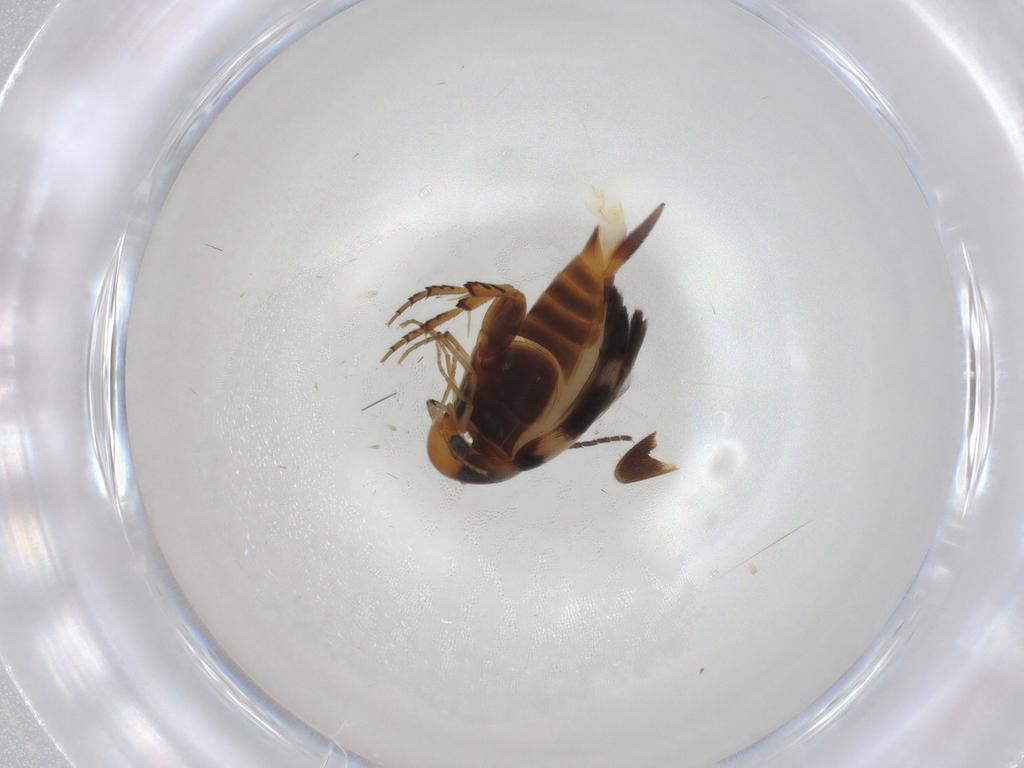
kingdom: Animalia
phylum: Arthropoda
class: Insecta
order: Coleoptera
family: Mordellidae
